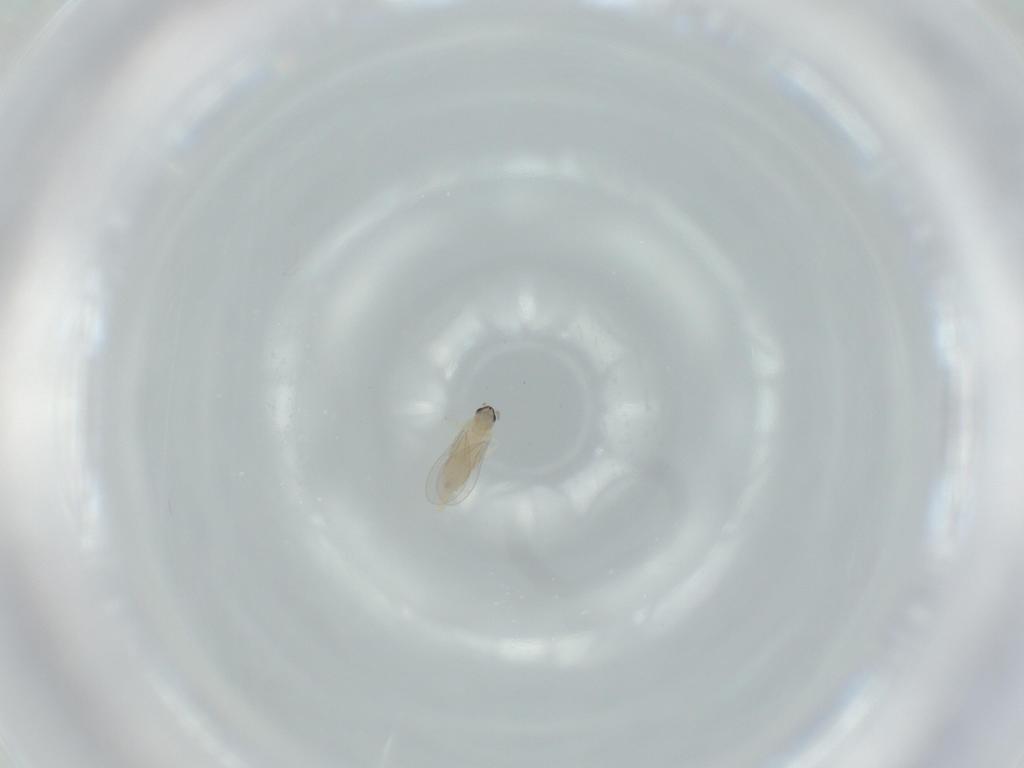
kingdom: Animalia
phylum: Arthropoda
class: Insecta
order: Diptera
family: Cecidomyiidae
